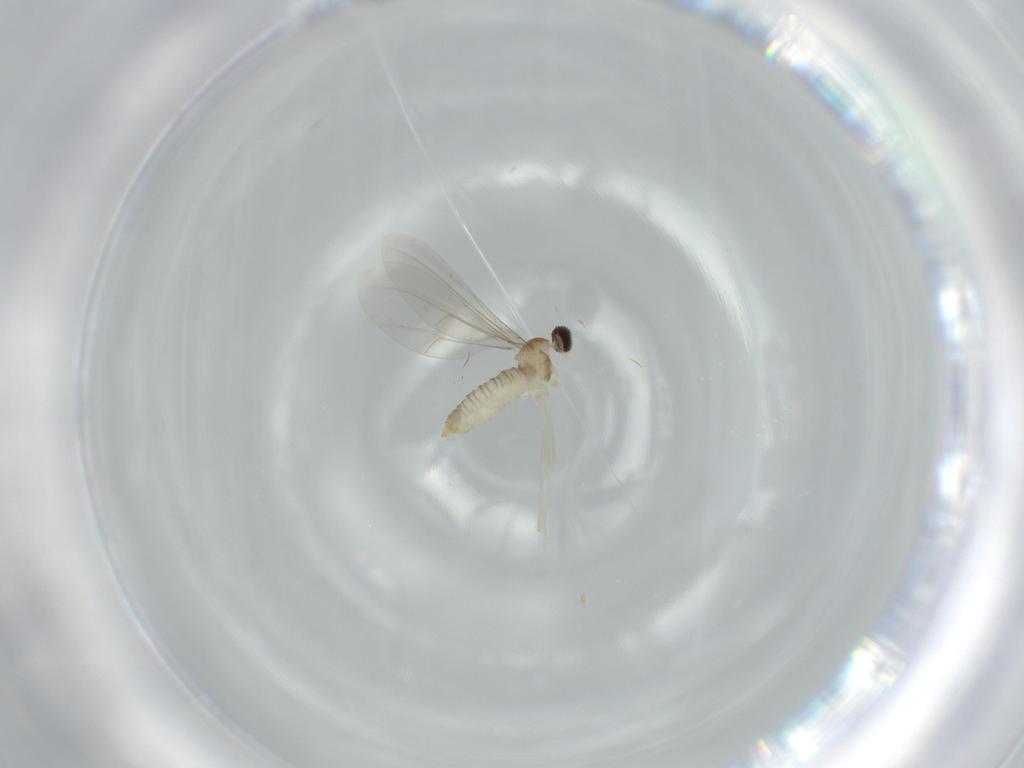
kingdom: Animalia
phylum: Arthropoda
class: Insecta
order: Diptera
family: Cecidomyiidae
